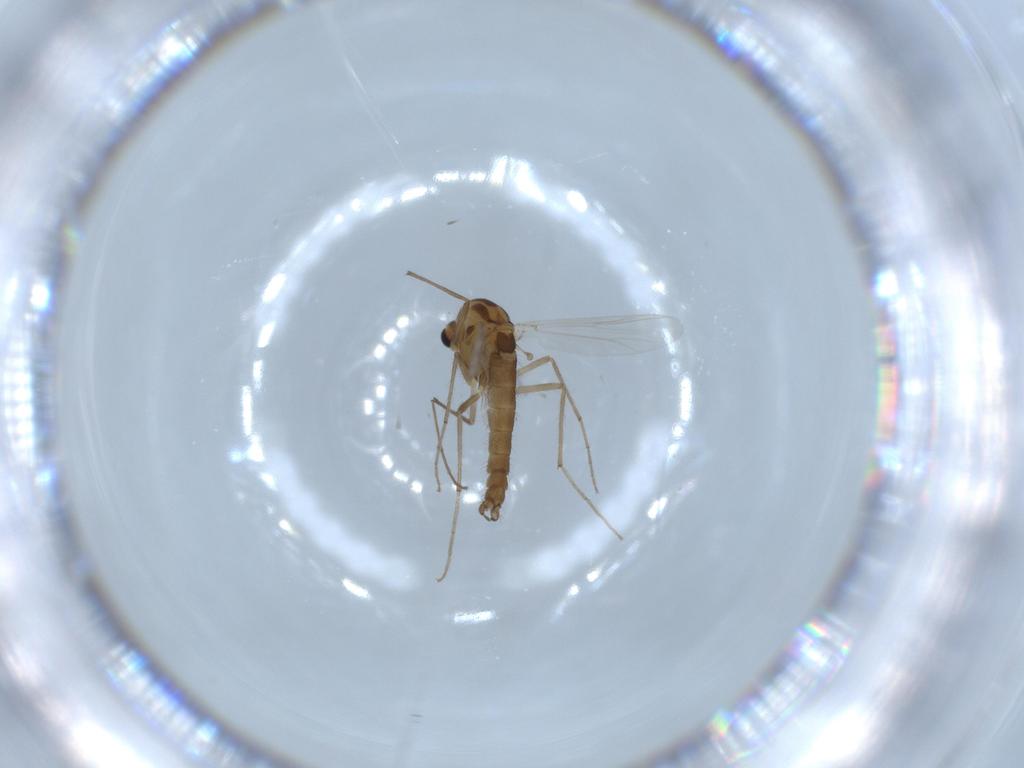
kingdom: Animalia
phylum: Arthropoda
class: Insecta
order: Diptera
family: Chironomidae
